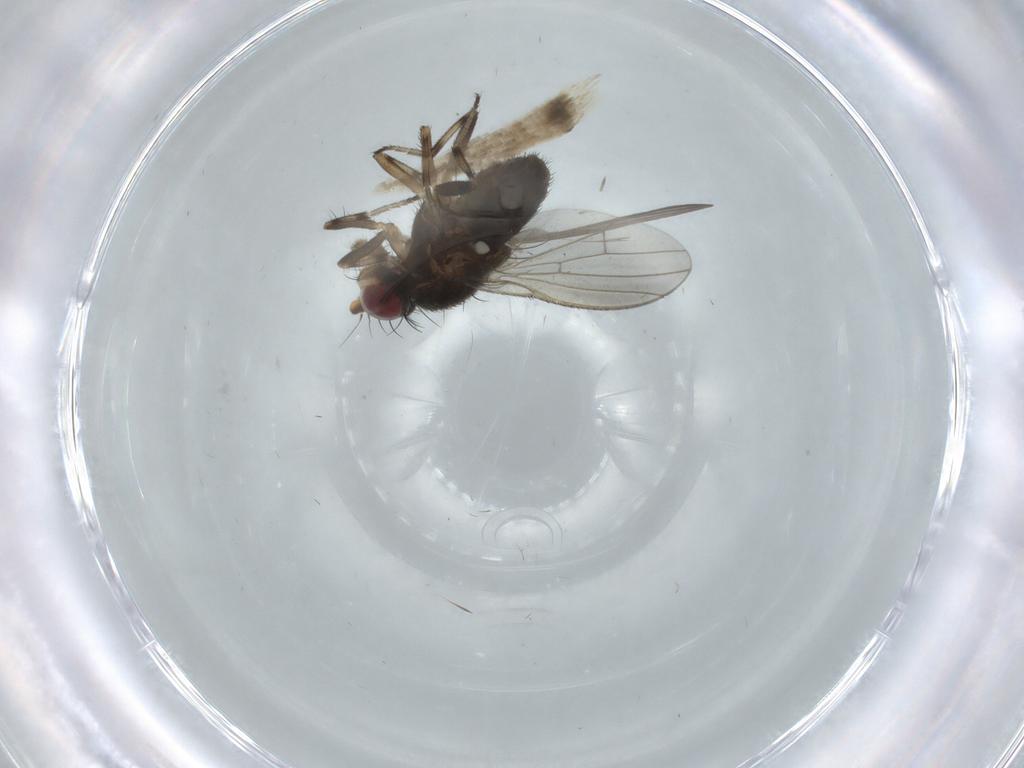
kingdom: Animalia
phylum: Arthropoda
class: Insecta
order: Diptera
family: Heleomyzidae
